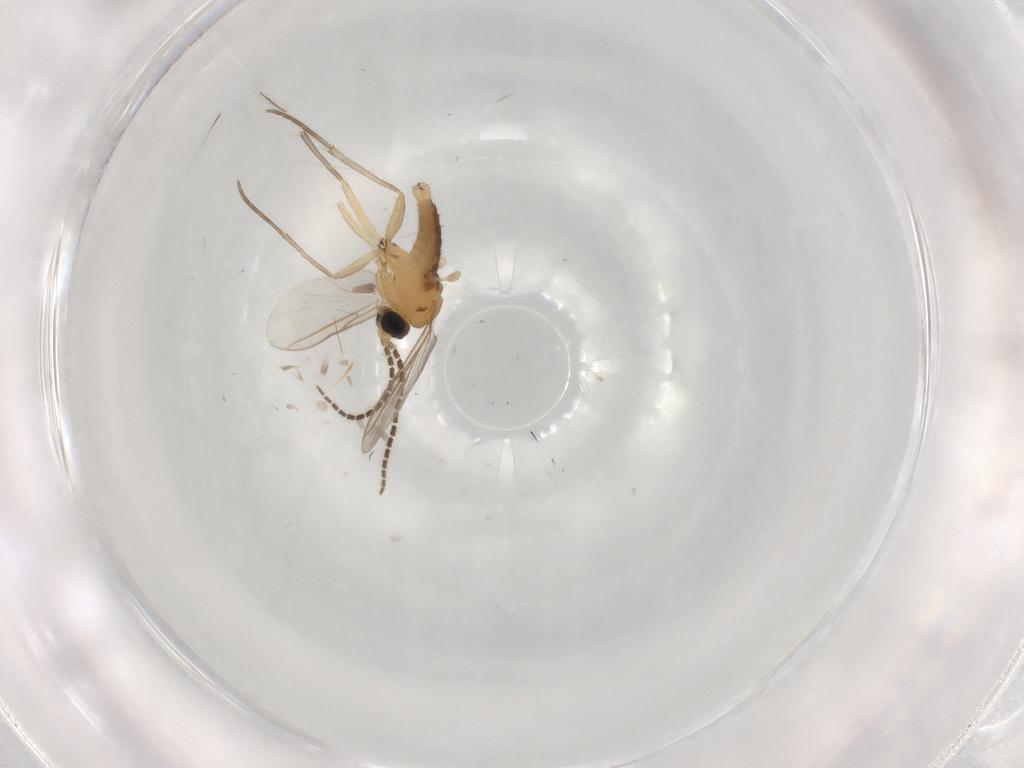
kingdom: Animalia
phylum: Arthropoda
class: Insecta
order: Diptera
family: Sciaridae
